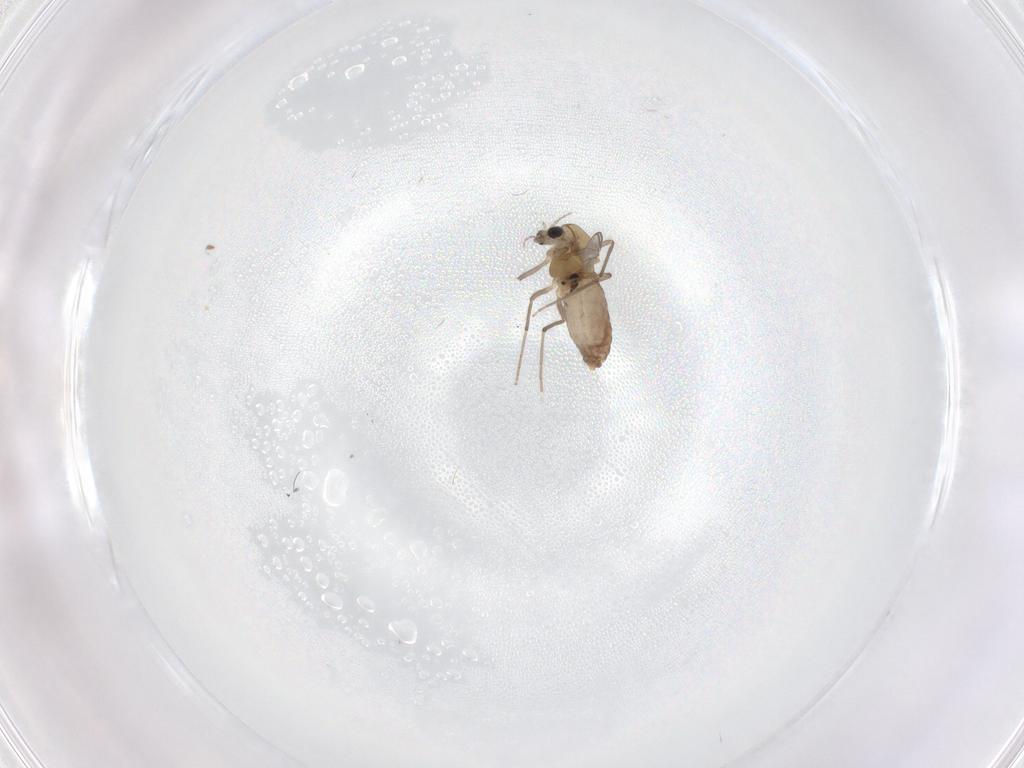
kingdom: Animalia
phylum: Arthropoda
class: Insecta
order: Diptera
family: Chironomidae
